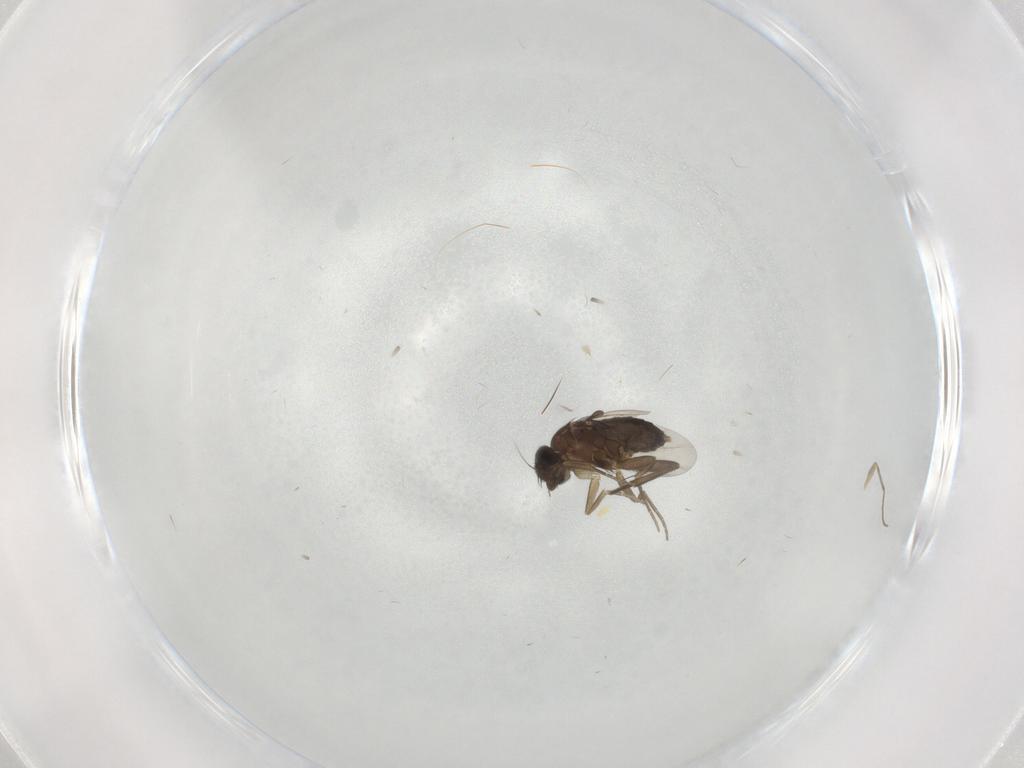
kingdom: Animalia
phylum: Arthropoda
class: Insecta
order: Diptera
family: Phoridae
